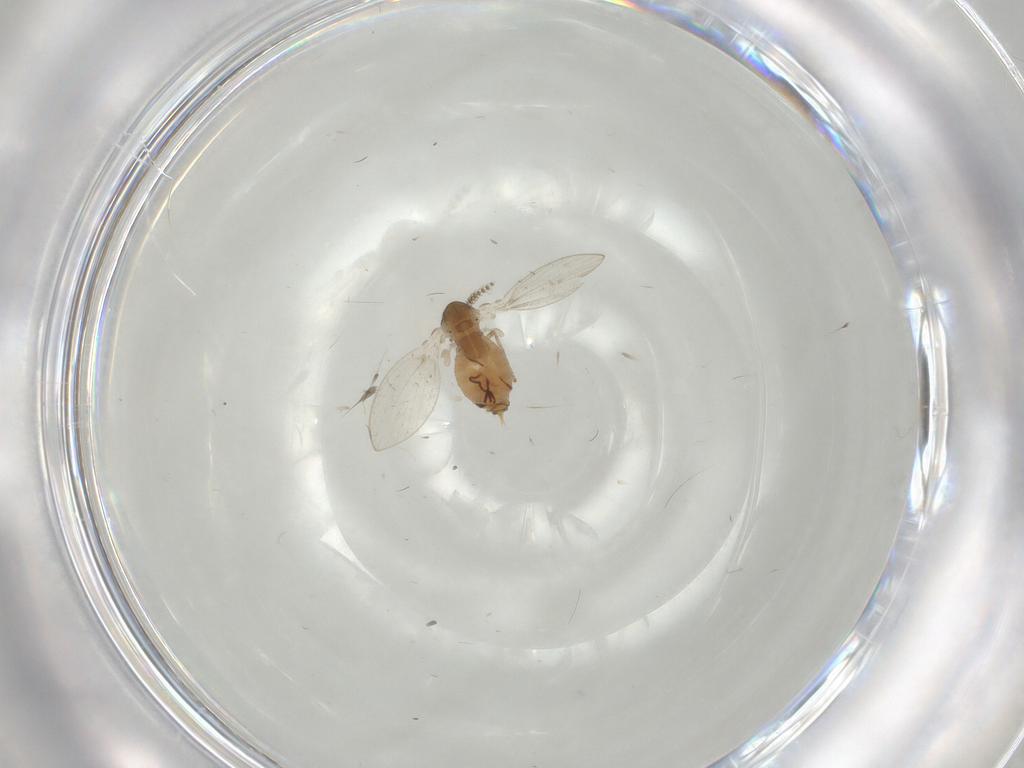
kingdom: Animalia
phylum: Arthropoda
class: Insecta
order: Diptera
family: Psychodidae
